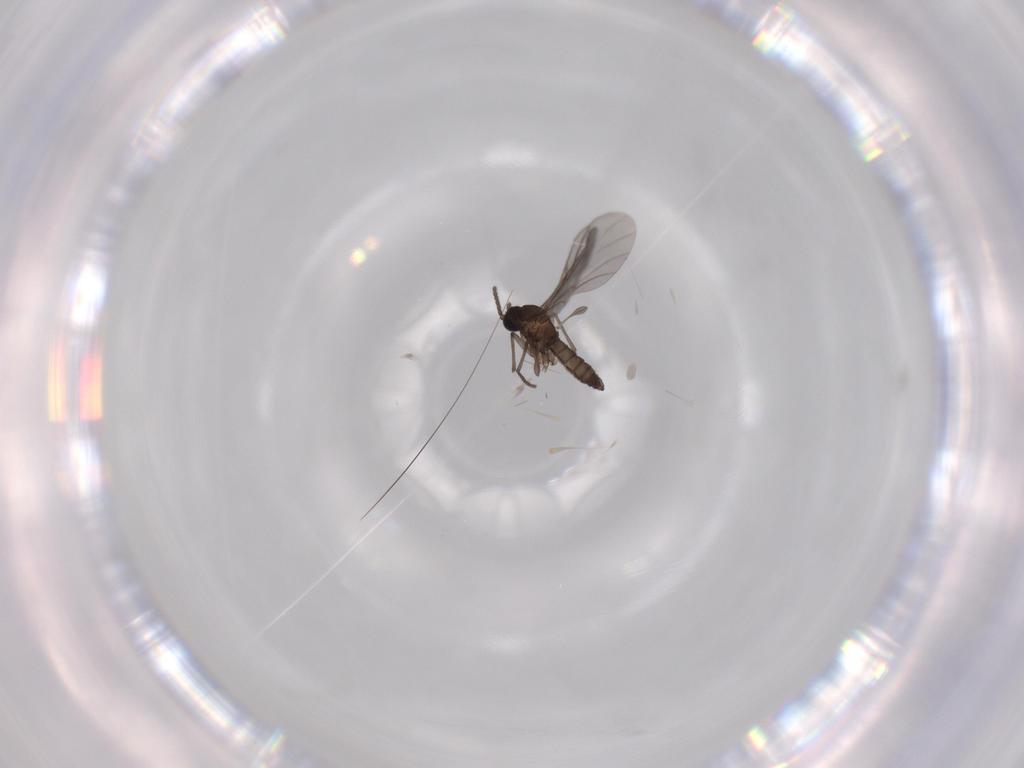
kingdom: Animalia
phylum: Arthropoda
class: Insecta
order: Diptera
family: Sciaridae
